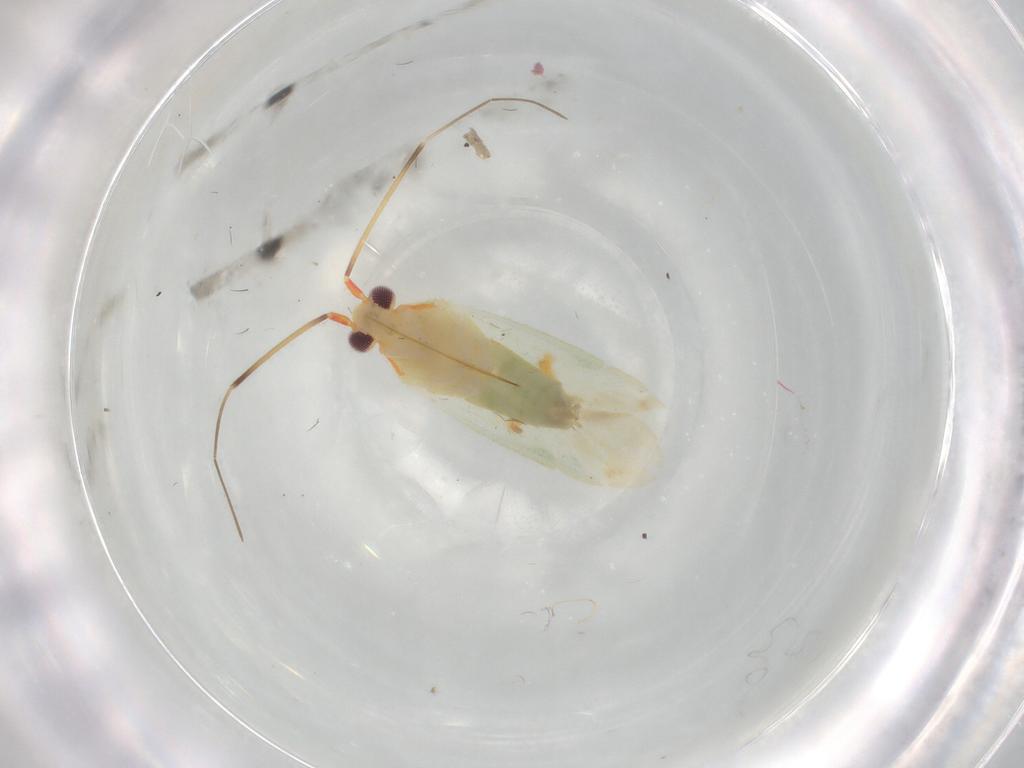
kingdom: Animalia
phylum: Arthropoda
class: Insecta
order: Hemiptera
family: Miridae
